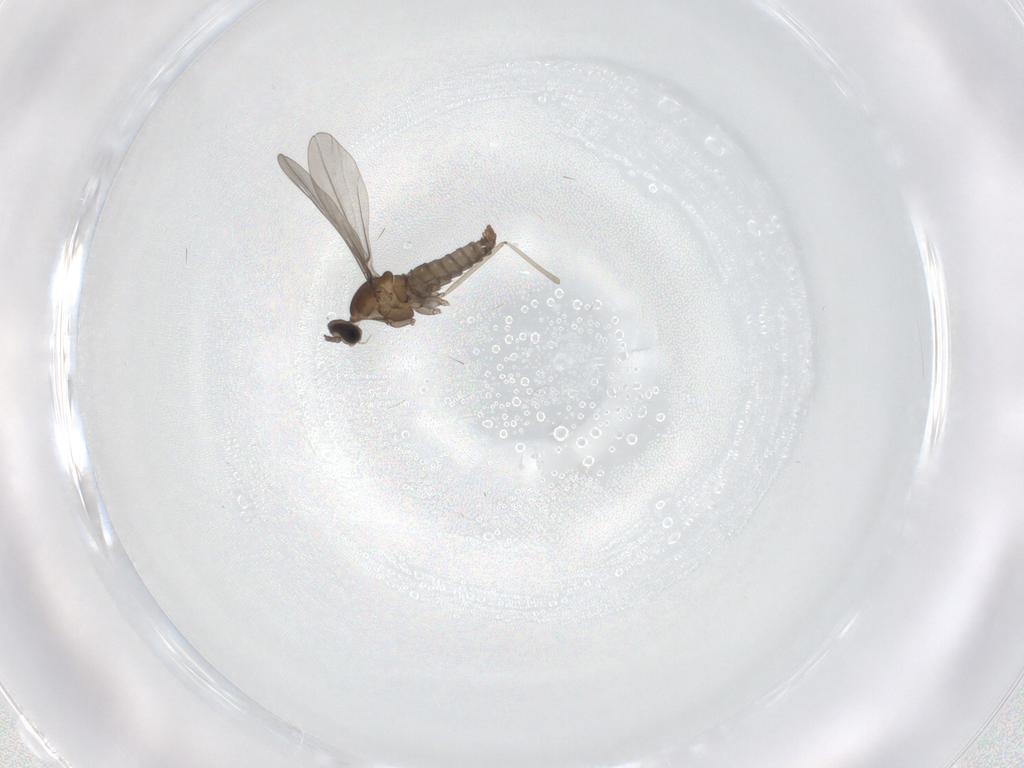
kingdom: Animalia
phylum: Arthropoda
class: Insecta
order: Diptera
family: Limoniidae
